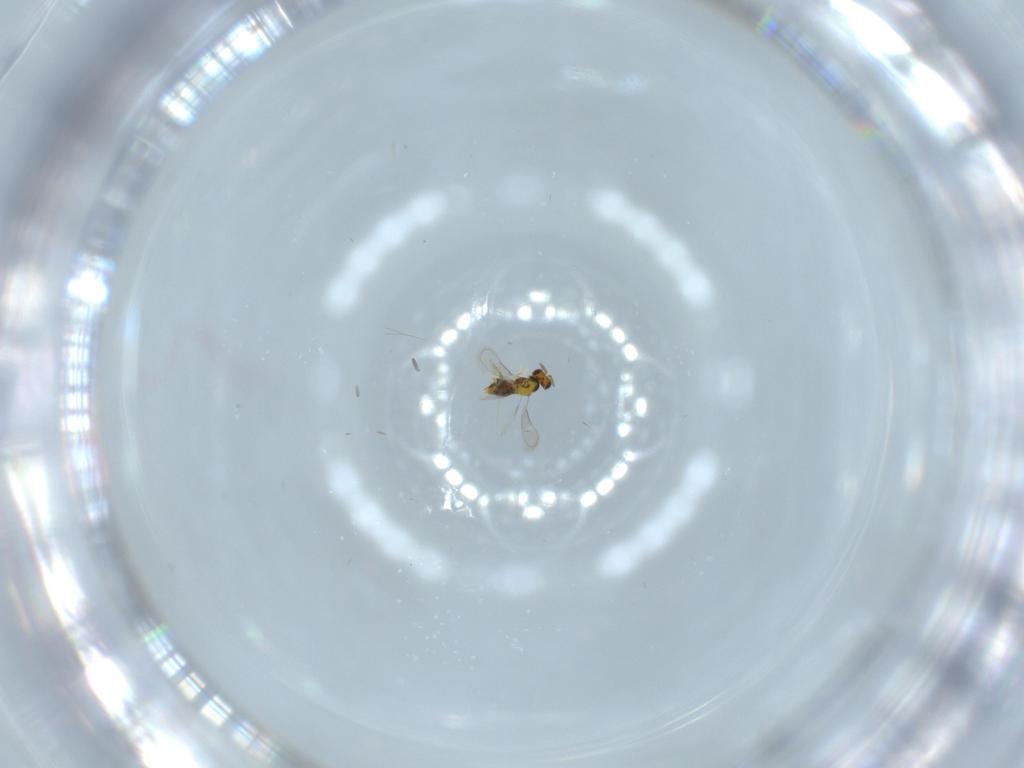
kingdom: Animalia
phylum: Arthropoda
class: Insecta
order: Hymenoptera
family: Aphelinidae
